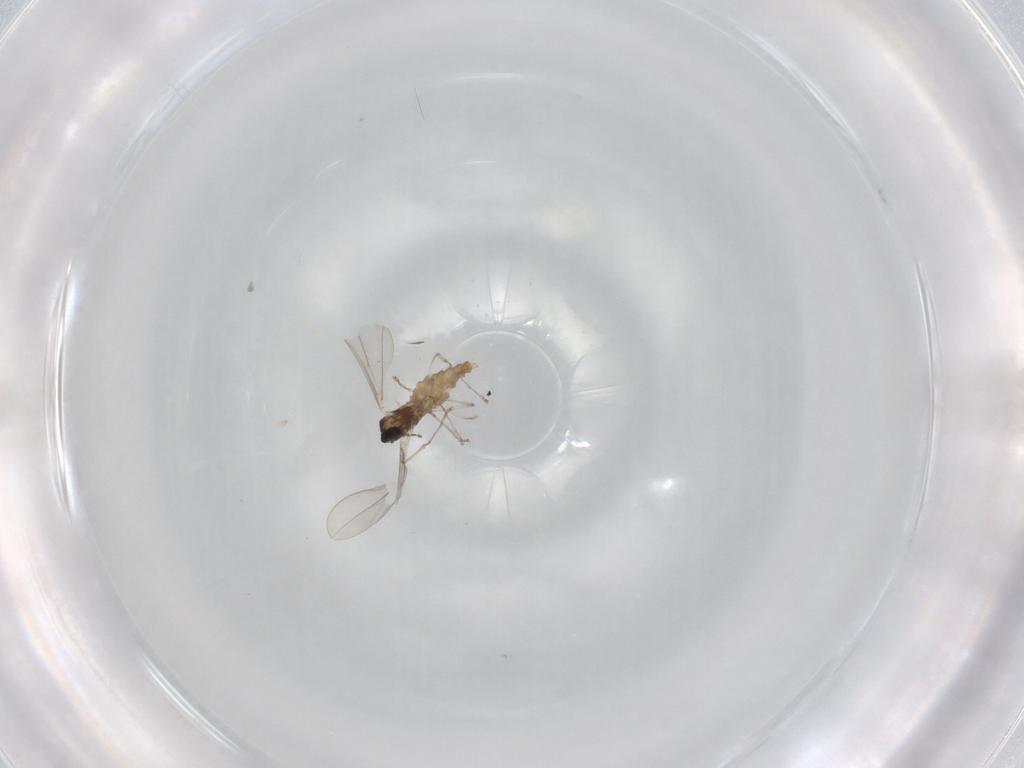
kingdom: Animalia
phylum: Arthropoda
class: Insecta
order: Diptera
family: Cecidomyiidae
